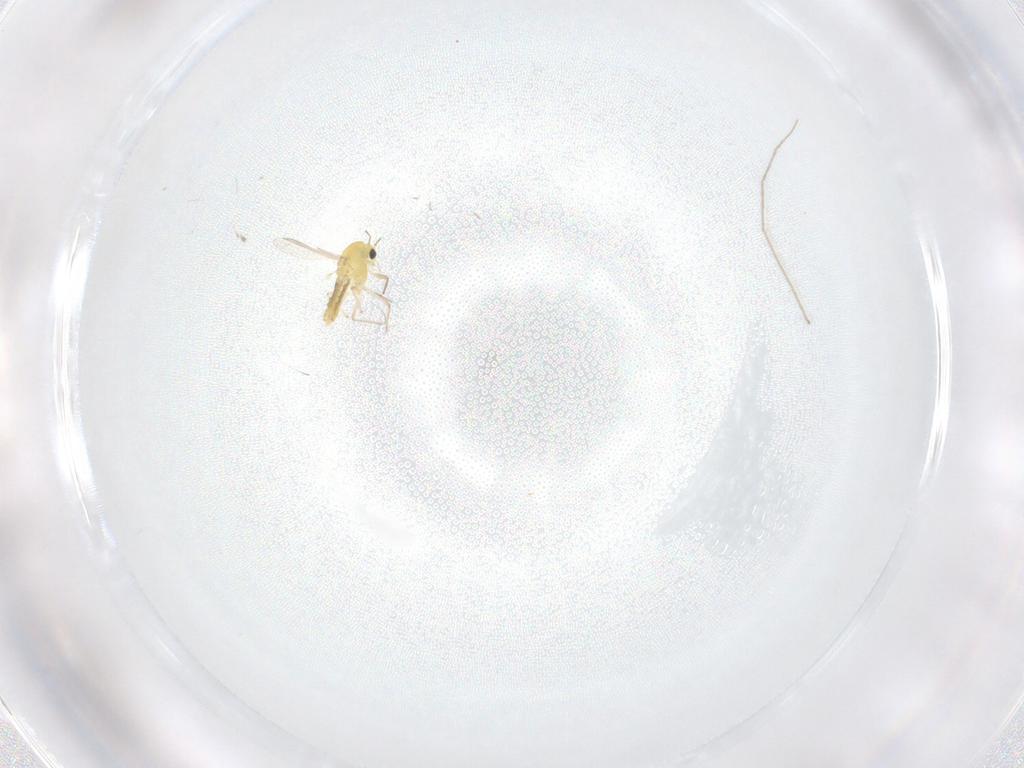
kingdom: Animalia
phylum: Arthropoda
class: Insecta
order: Diptera
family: Chironomidae
